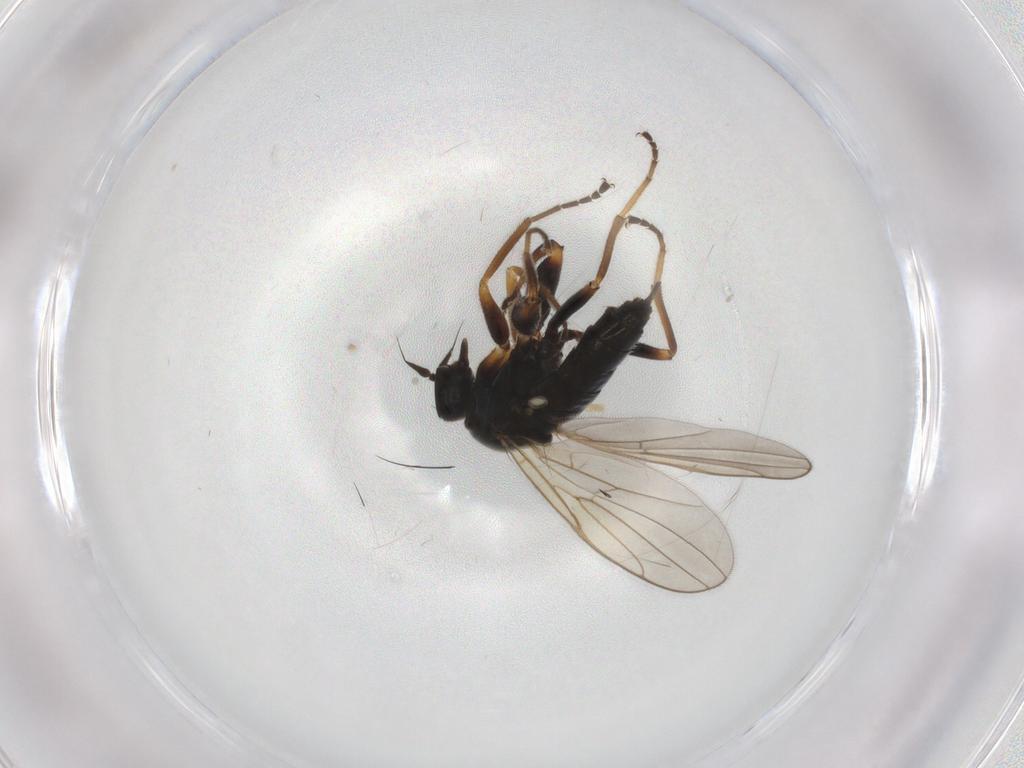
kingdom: Animalia
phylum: Arthropoda
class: Insecta
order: Diptera
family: Cecidomyiidae
